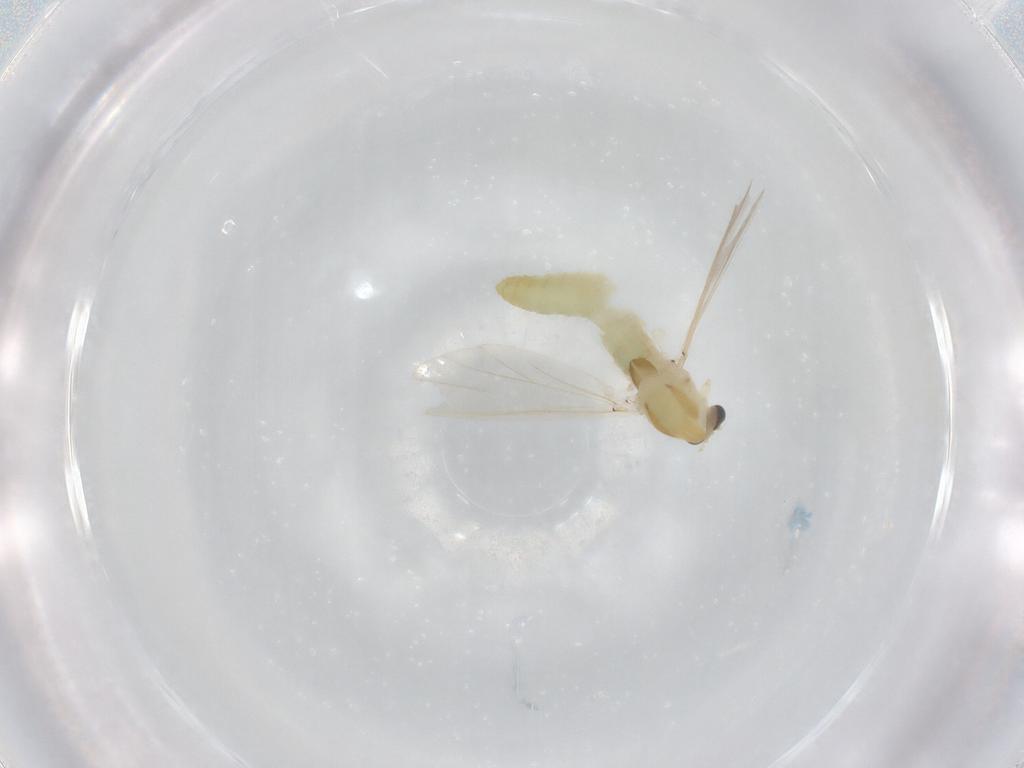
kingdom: Animalia
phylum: Arthropoda
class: Insecta
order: Diptera
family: Chironomidae
